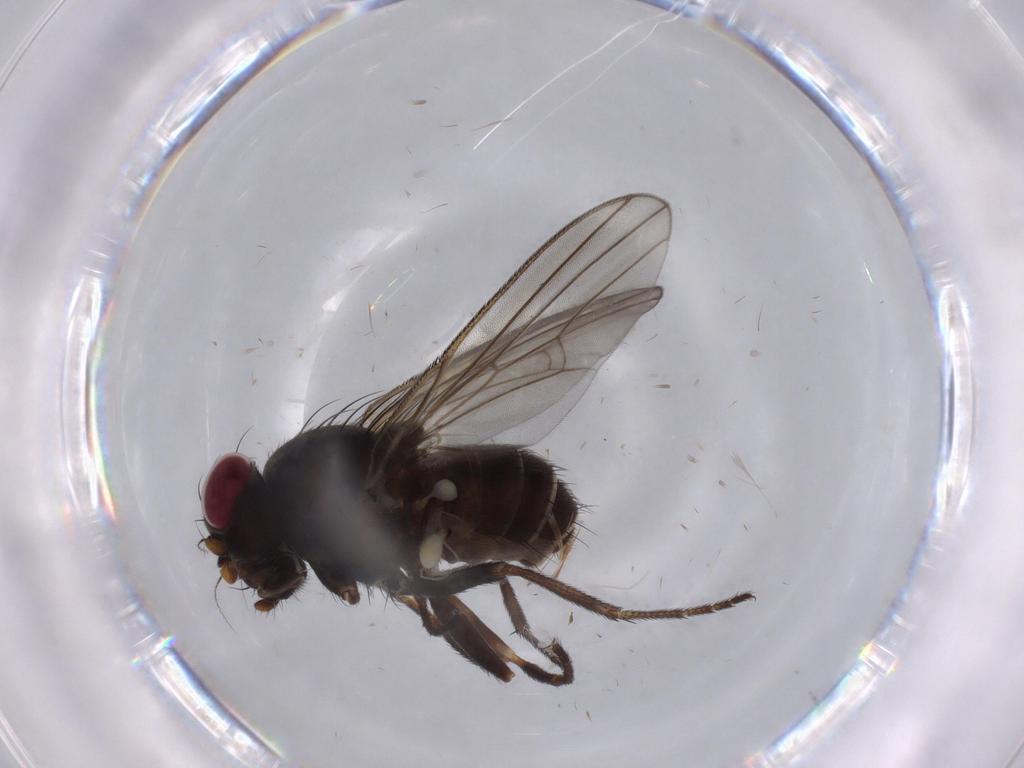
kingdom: Animalia
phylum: Arthropoda
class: Insecta
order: Diptera
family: Calliphoridae
